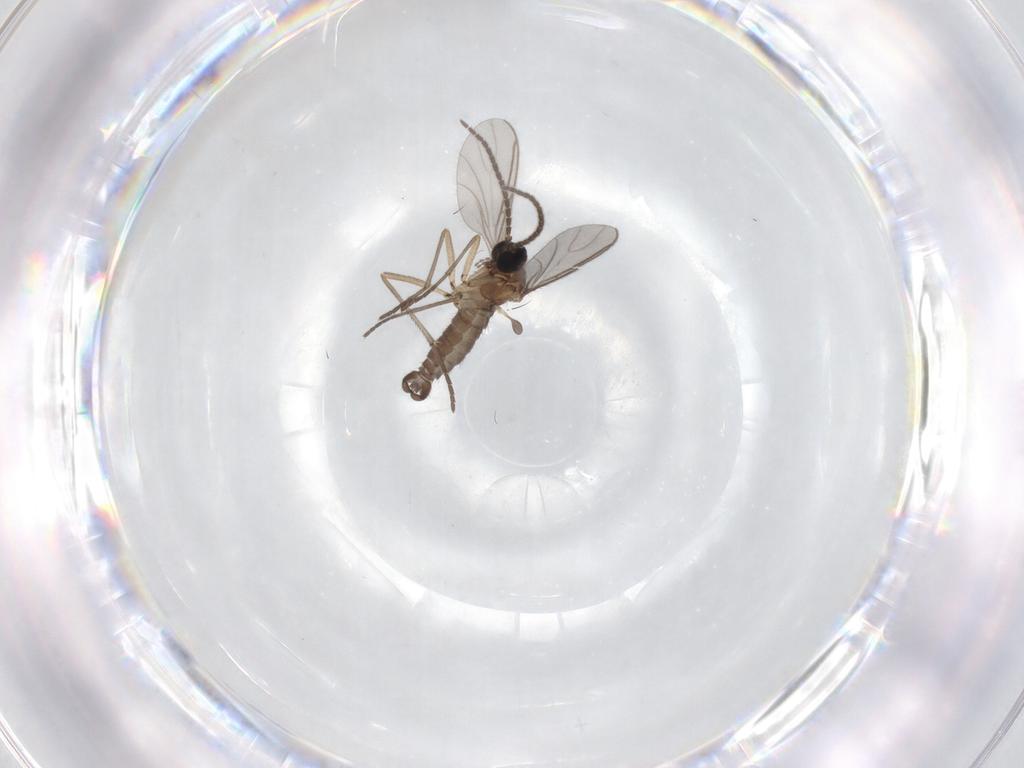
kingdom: Animalia
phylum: Arthropoda
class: Insecta
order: Diptera
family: Sciaridae
